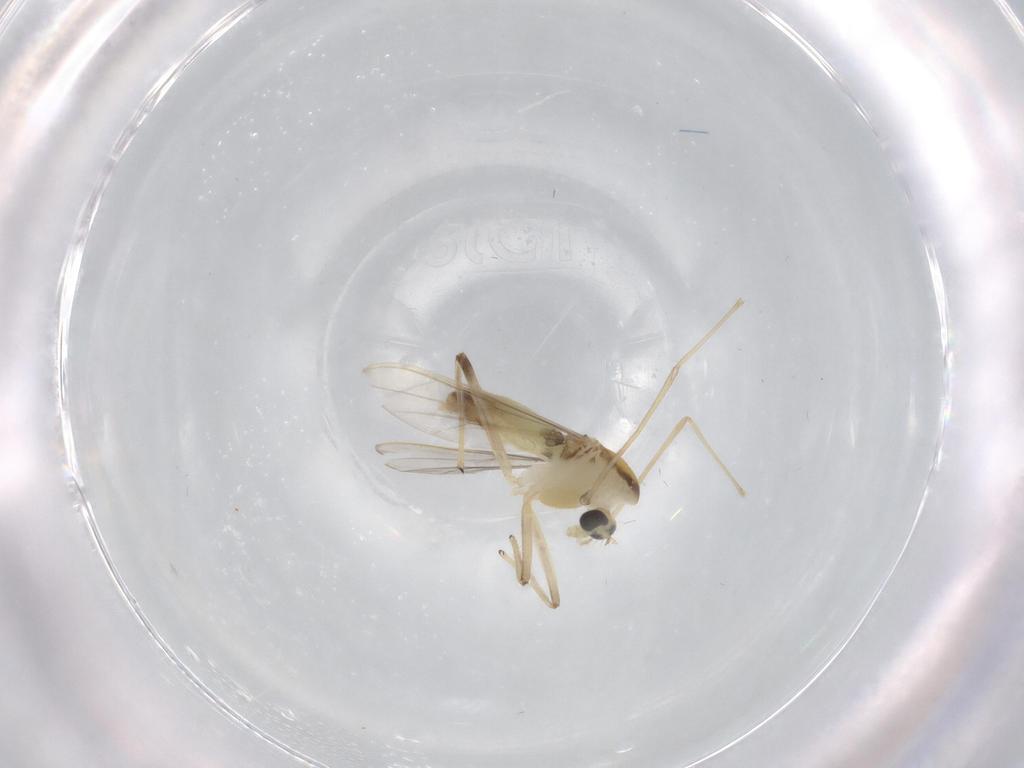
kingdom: Animalia
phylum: Arthropoda
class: Insecta
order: Diptera
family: Chironomidae
